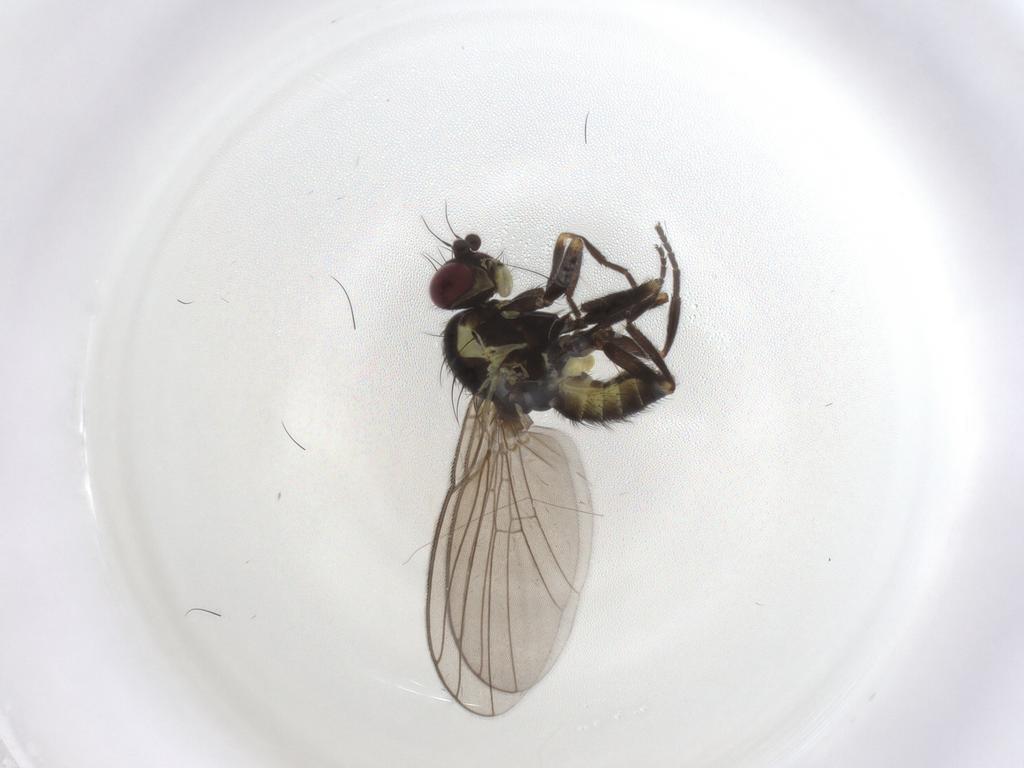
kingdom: Animalia
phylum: Arthropoda
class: Insecta
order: Diptera
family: Agromyzidae
